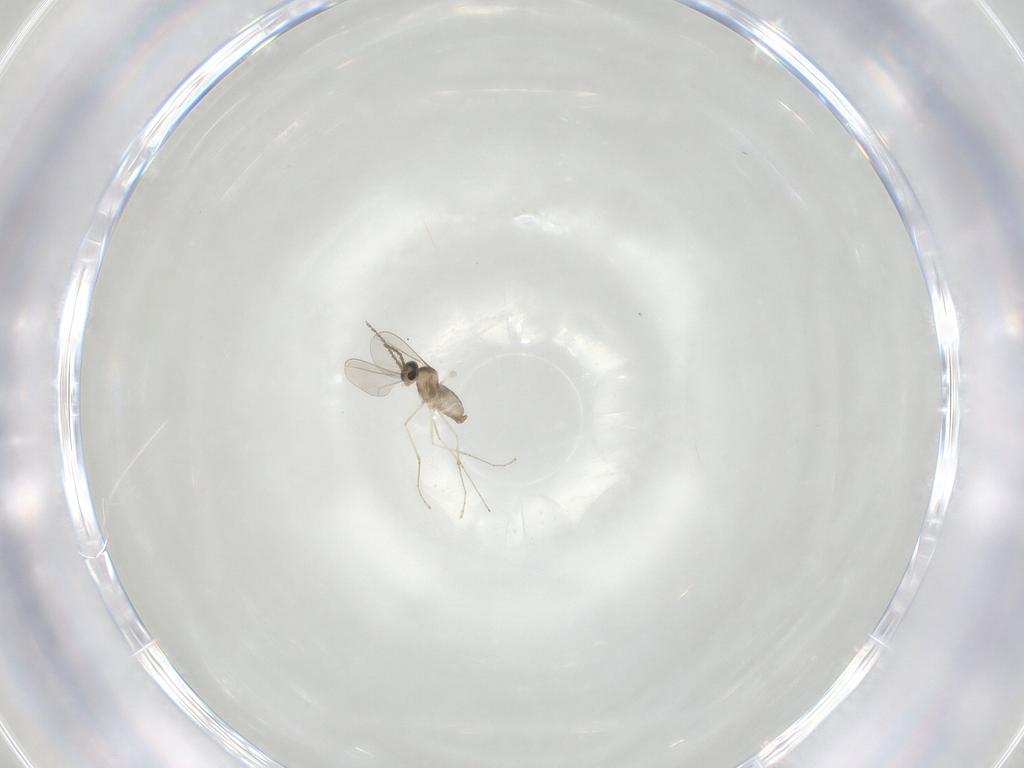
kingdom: Animalia
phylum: Arthropoda
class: Insecta
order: Diptera
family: Cecidomyiidae
